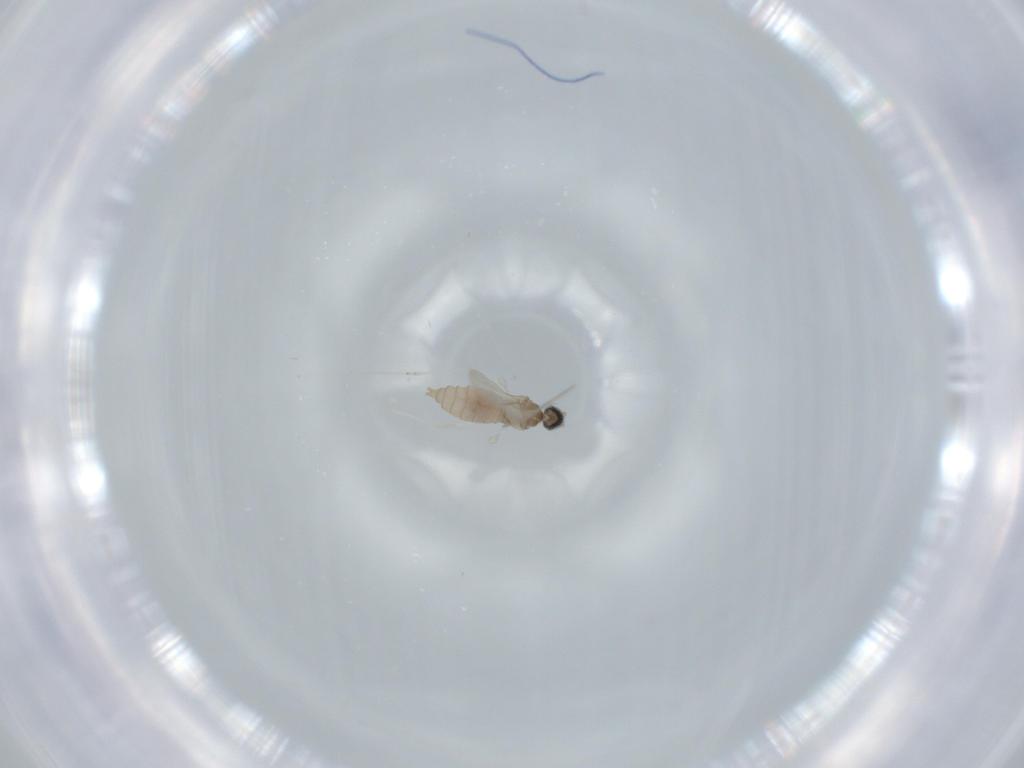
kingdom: Animalia
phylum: Arthropoda
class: Insecta
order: Diptera
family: Cecidomyiidae
